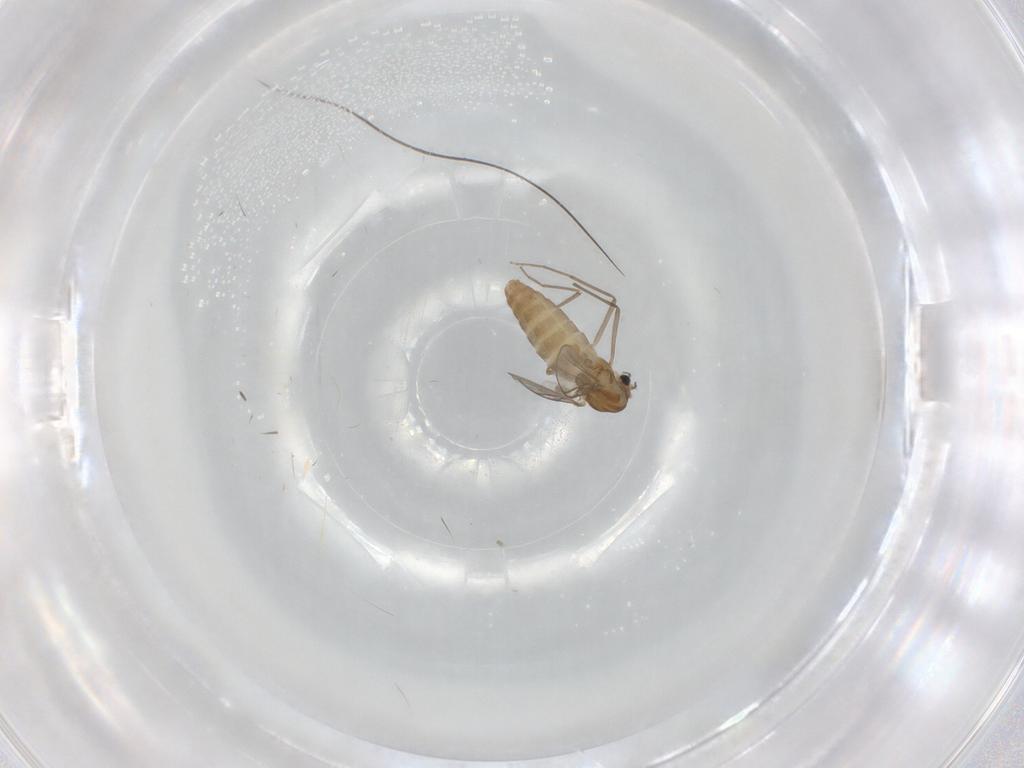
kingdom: Animalia
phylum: Arthropoda
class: Insecta
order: Diptera
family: Chironomidae
